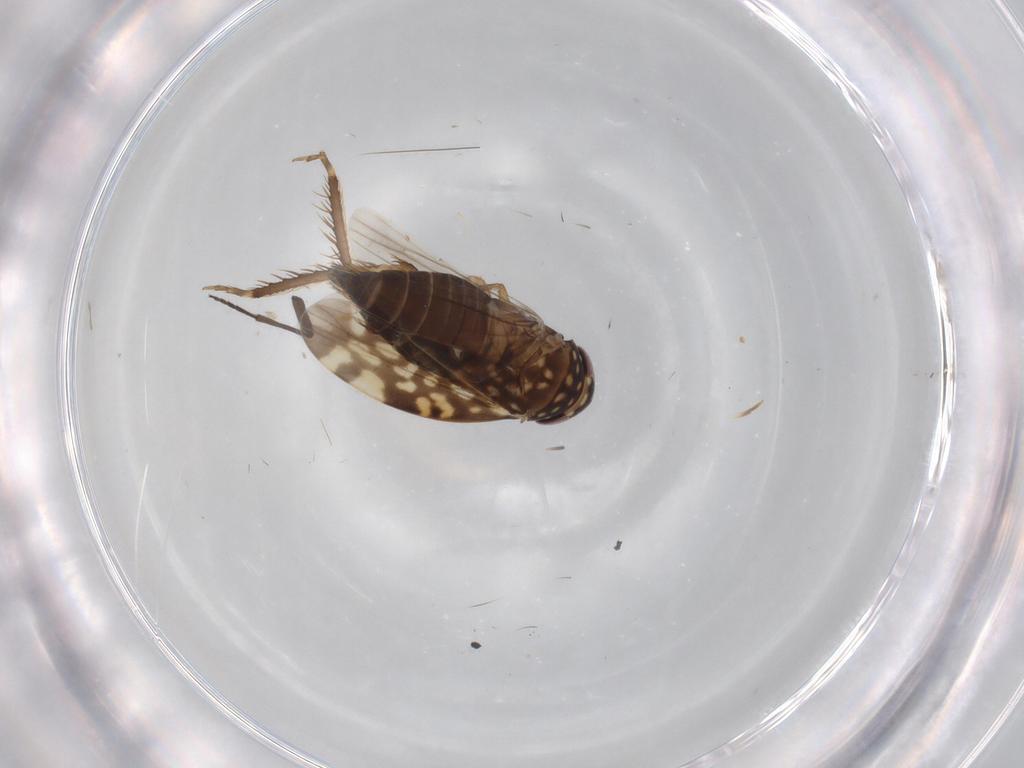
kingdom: Animalia
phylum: Arthropoda
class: Insecta
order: Hemiptera
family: Cicadellidae
